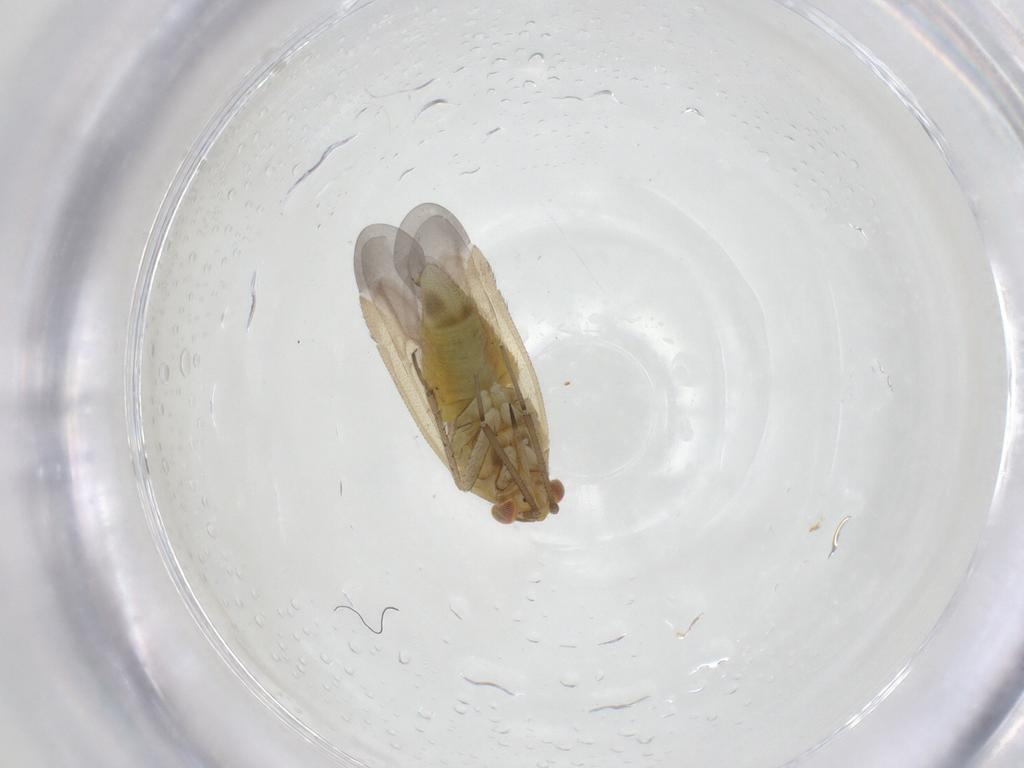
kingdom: Animalia
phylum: Arthropoda
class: Insecta
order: Hemiptera
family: Miridae
